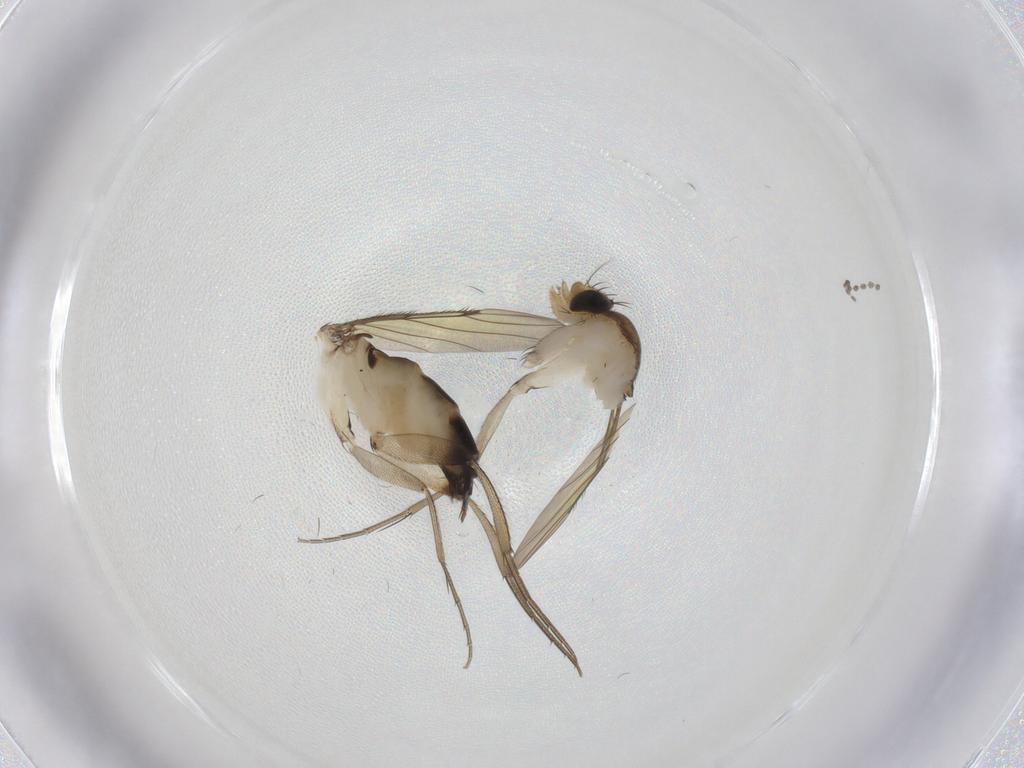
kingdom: Animalia
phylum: Arthropoda
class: Insecta
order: Diptera
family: Phoridae
